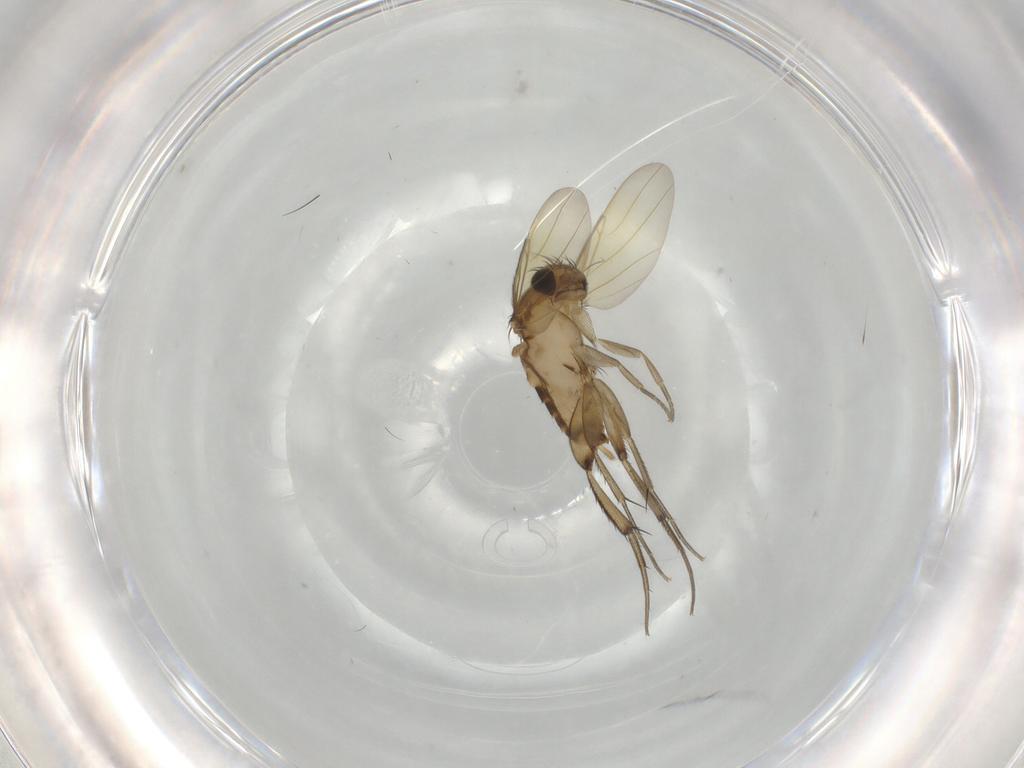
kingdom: Animalia
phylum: Arthropoda
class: Insecta
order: Diptera
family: Phoridae
